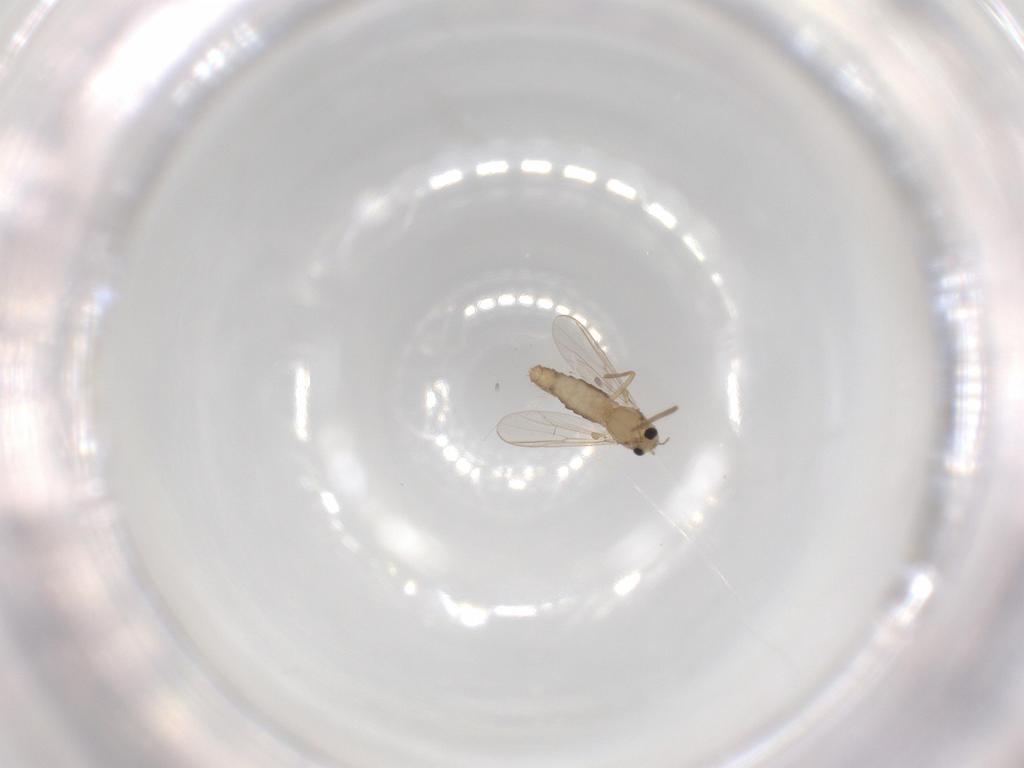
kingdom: Animalia
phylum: Arthropoda
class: Insecta
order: Diptera
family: Chironomidae
